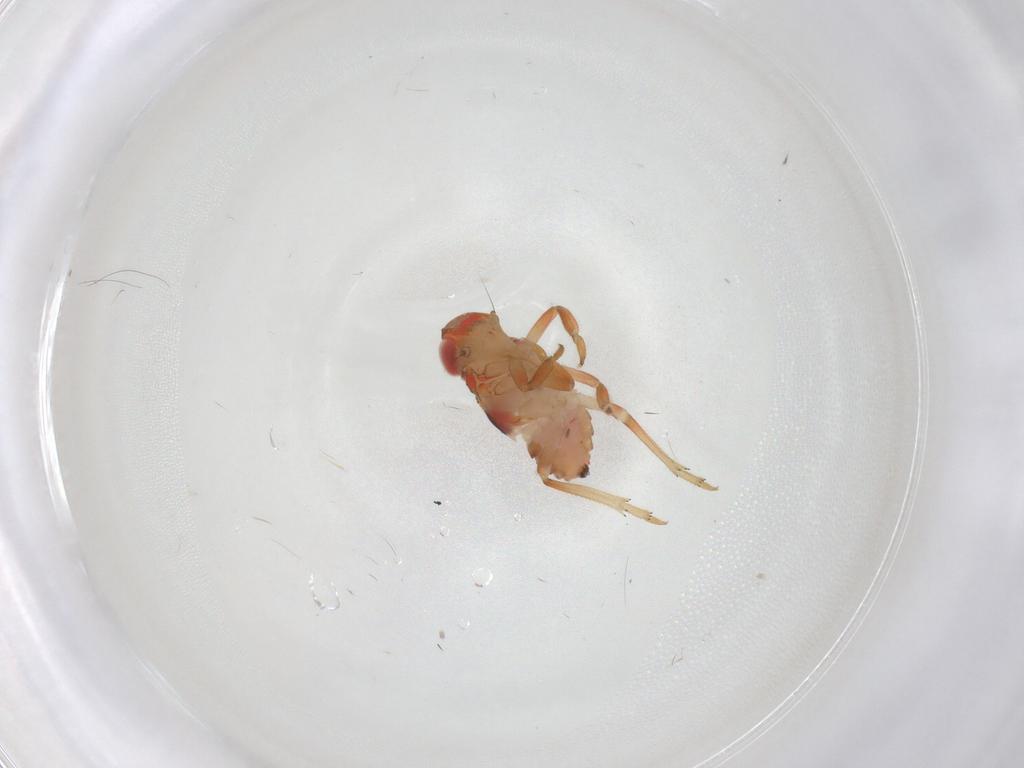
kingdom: Animalia
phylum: Arthropoda
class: Insecta
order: Hemiptera
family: Issidae
